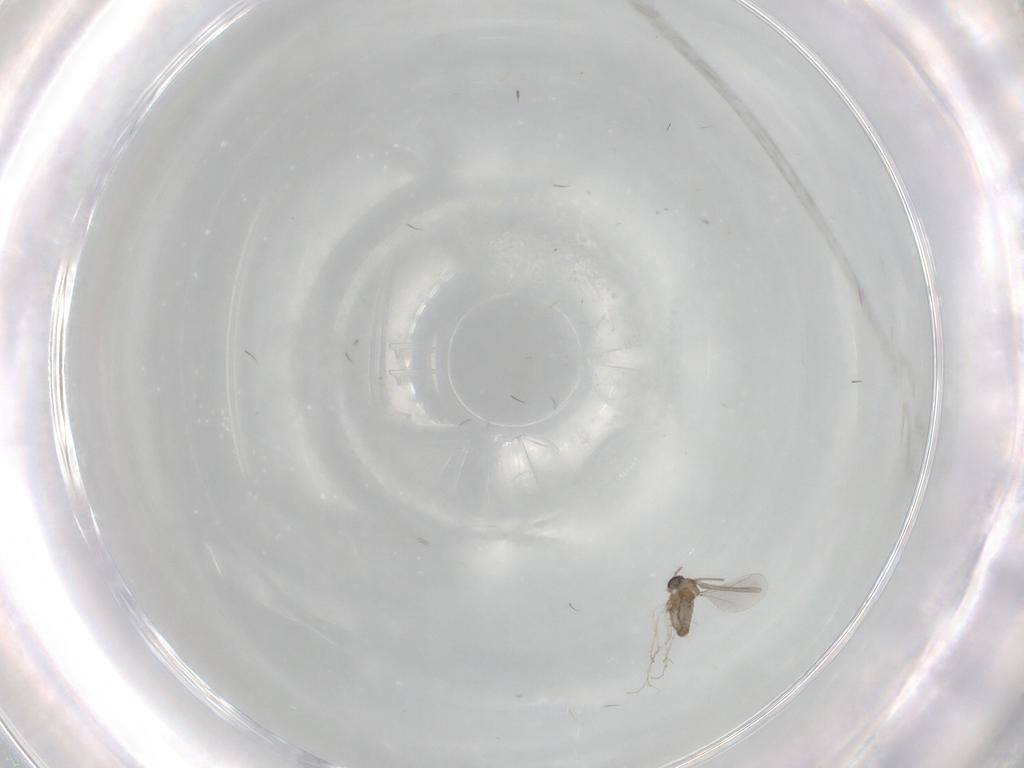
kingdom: Animalia
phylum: Arthropoda
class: Insecta
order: Diptera
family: Cecidomyiidae
